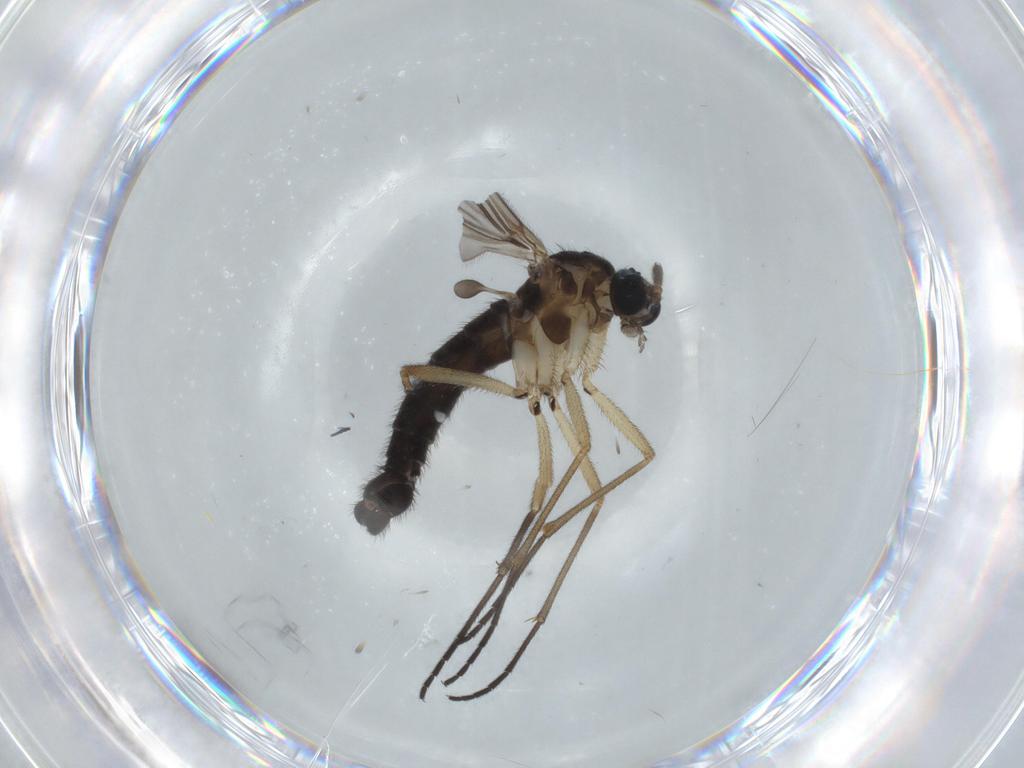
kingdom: Animalia
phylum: Arthropoda
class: Insecta
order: Diptera
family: Sciaridae
